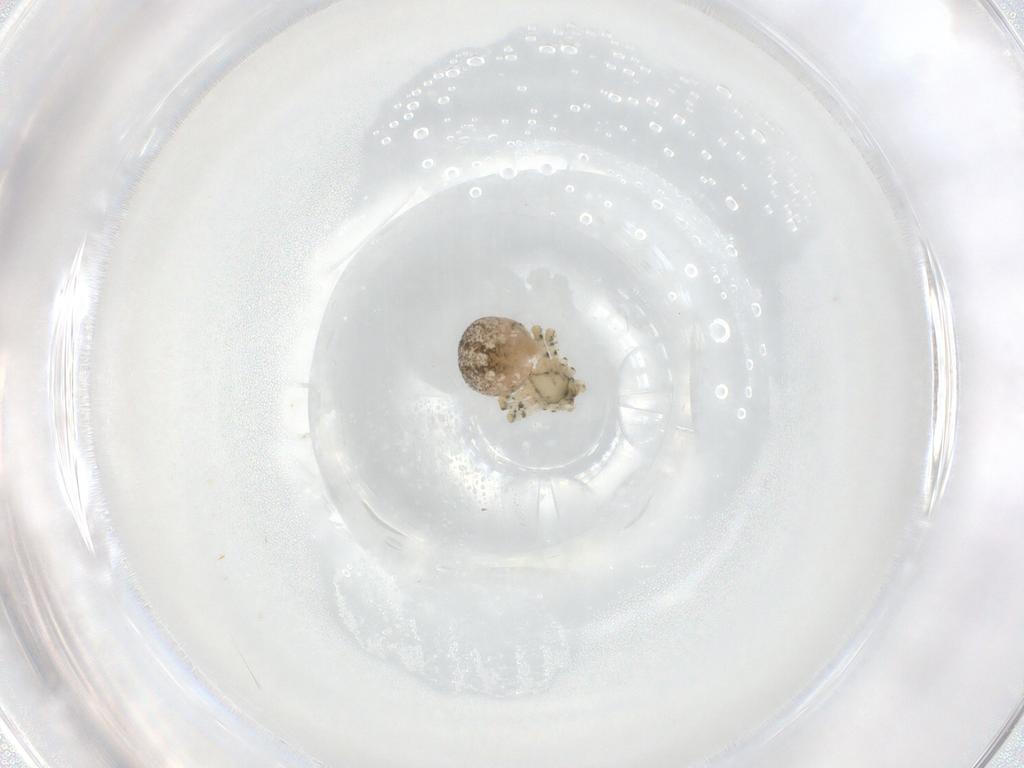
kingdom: Animalia
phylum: Arthropoda
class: Arachnida
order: Araneae
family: Theridiidae
